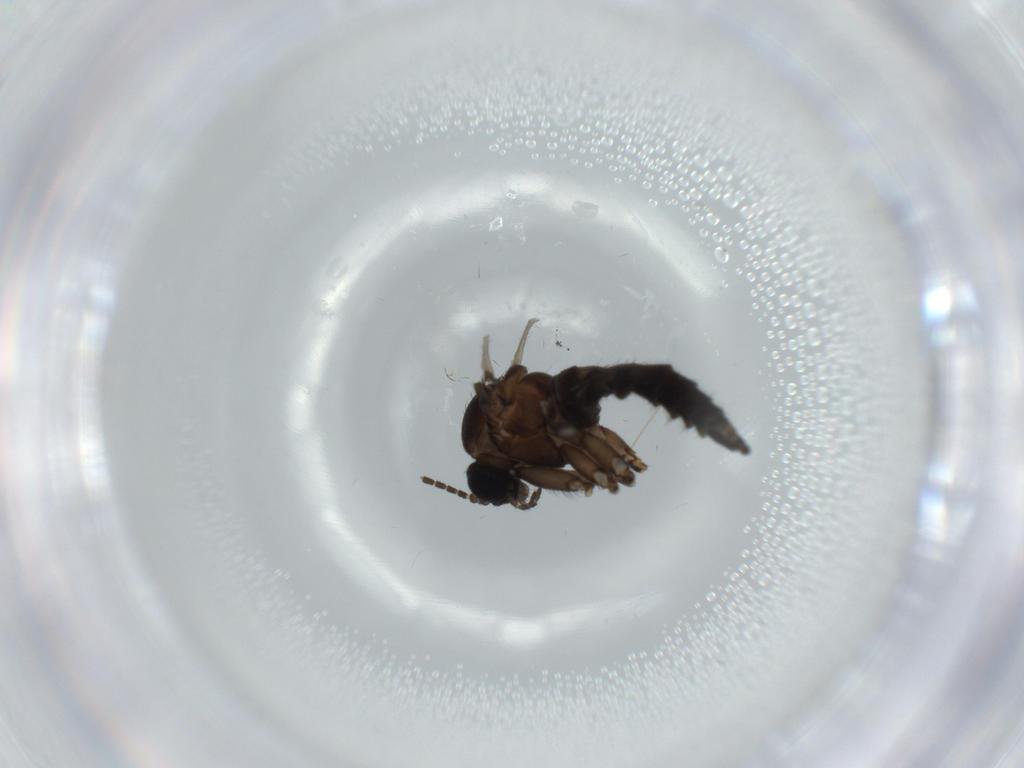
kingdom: Animalia
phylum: Arthropoda
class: Insecta
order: Diptera
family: Sciaridae
